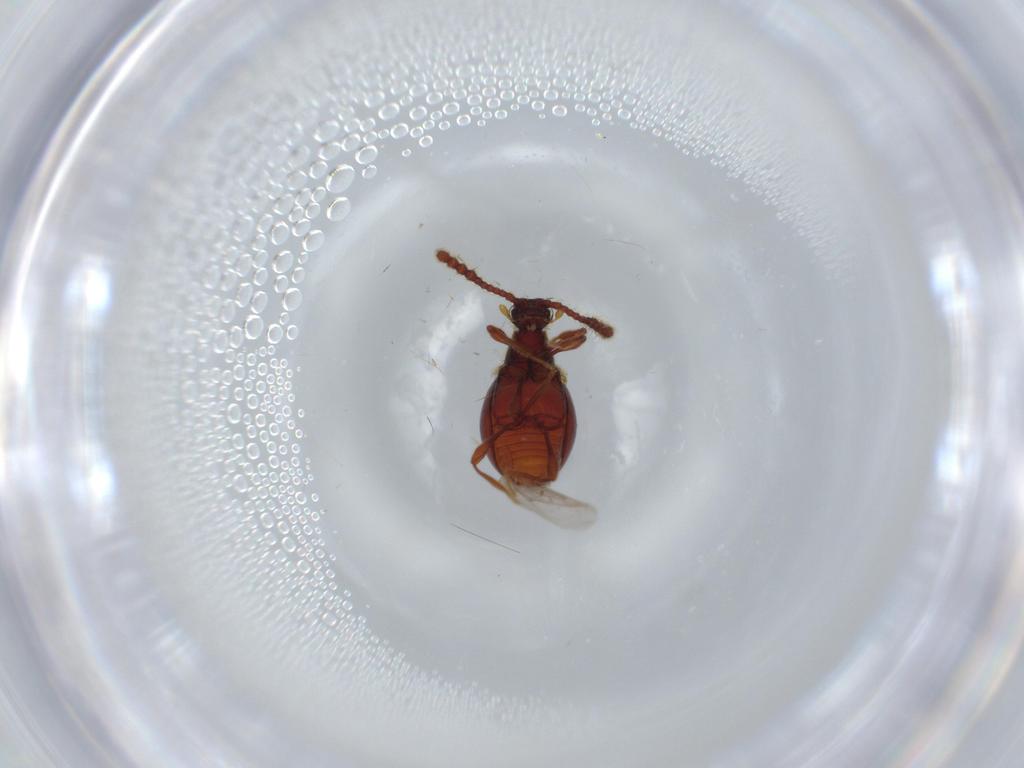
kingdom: Animalia
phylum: Arthropoda
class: Insecta
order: Coleoptera
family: Staphylinidae
